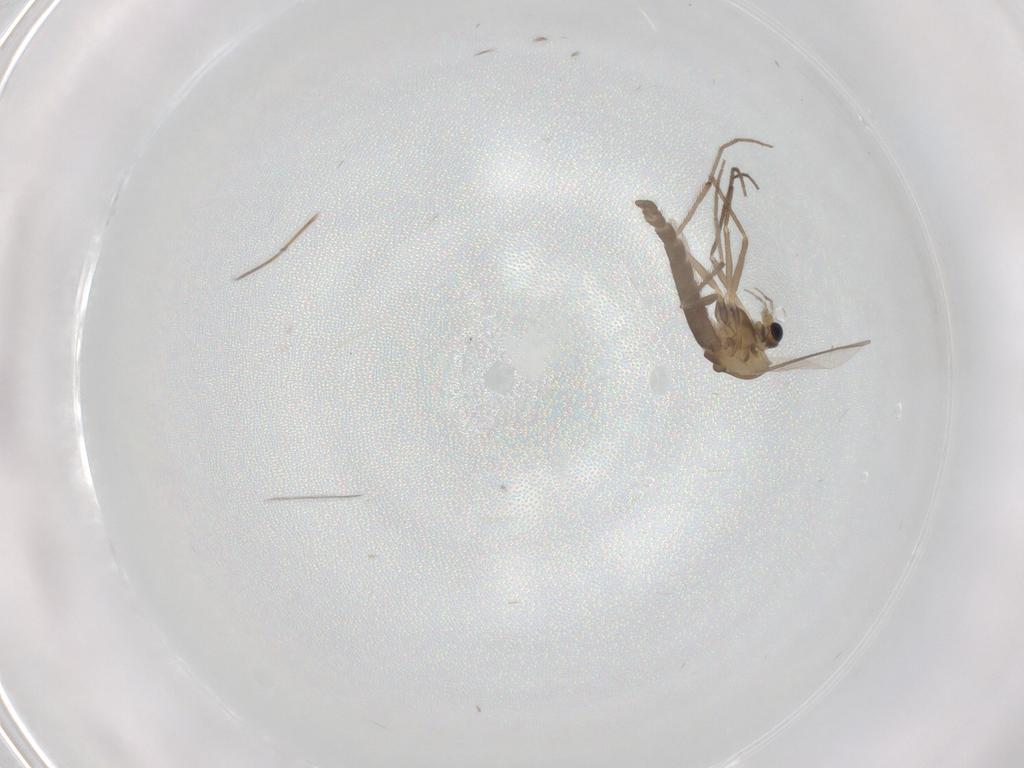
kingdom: Animalia
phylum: Arthropoda
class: Insecta
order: Diptera
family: Chironomidae
